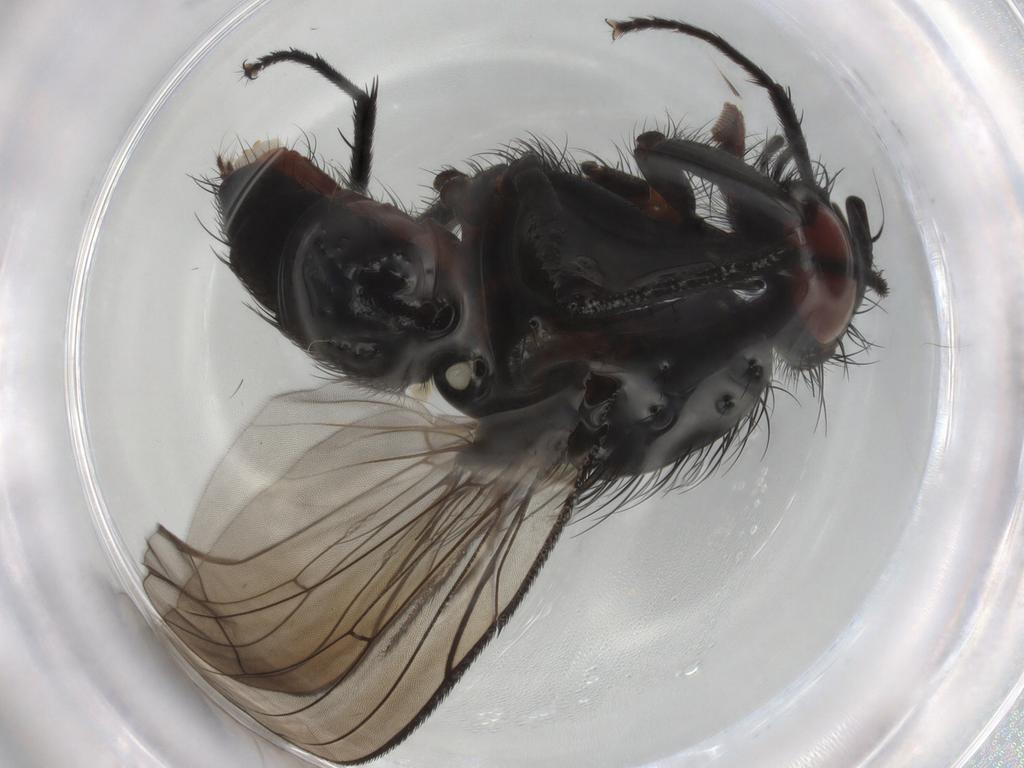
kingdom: Animalia
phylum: Arthropoda
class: Insecta
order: Diptera
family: Anthomyiidae
